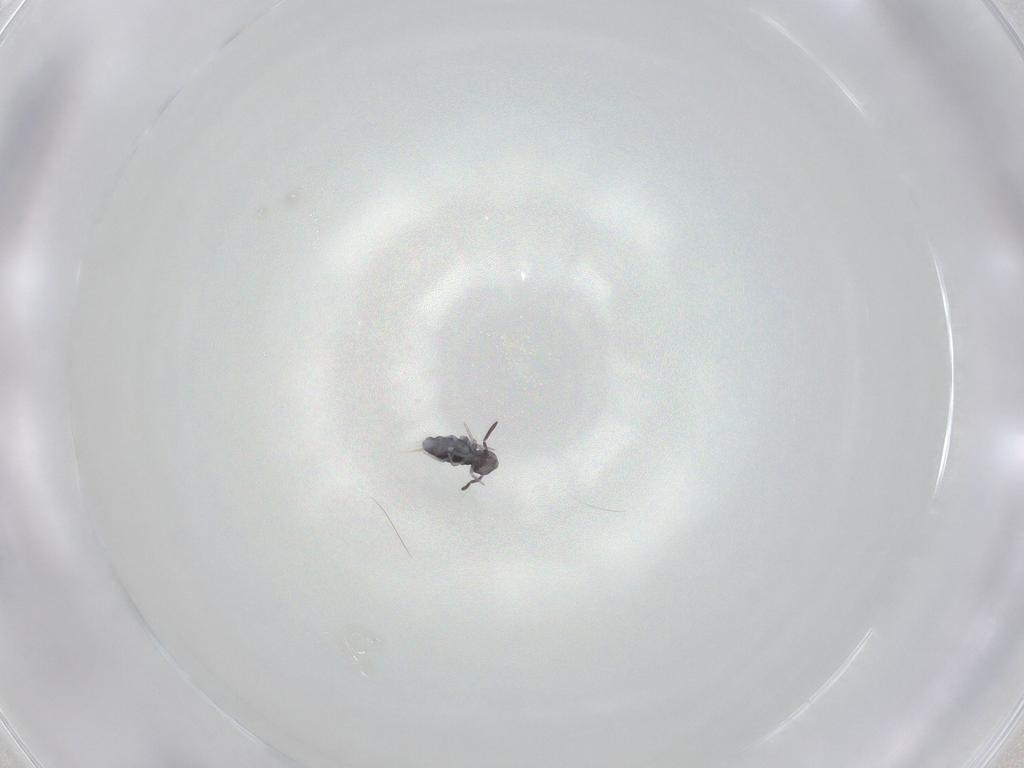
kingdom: Animalia
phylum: Arthropoda
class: Collembola
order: Symphypleona
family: Katiannidae
